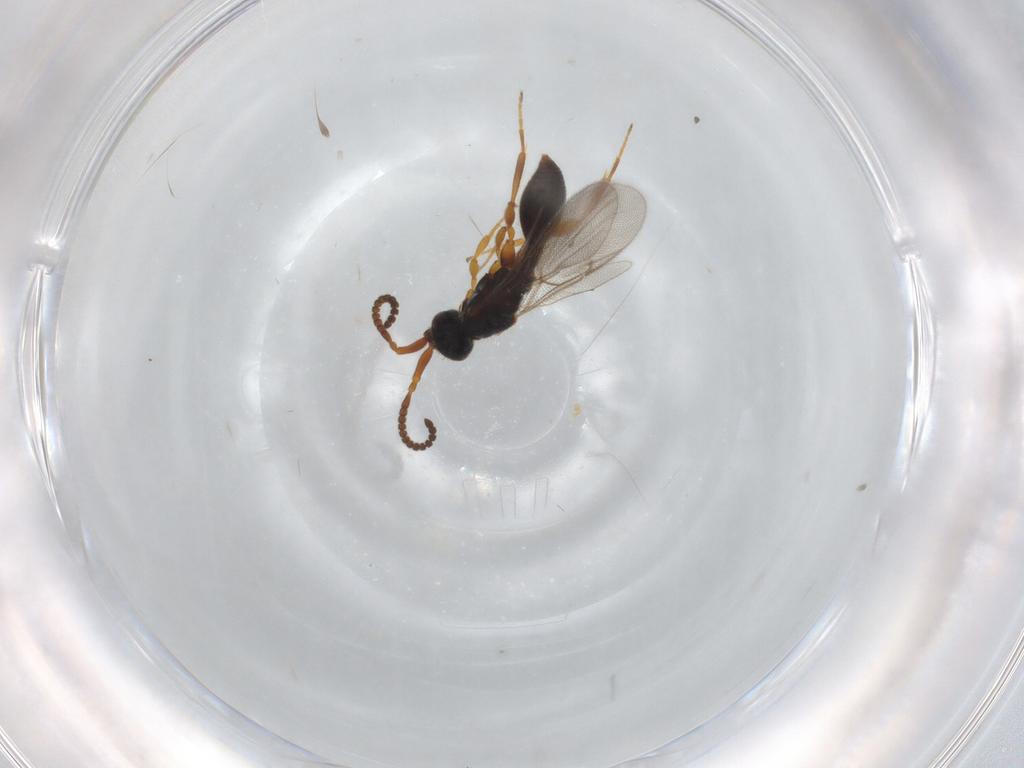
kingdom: Animalia
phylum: Arthropoda
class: Insecta
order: Hymenoptera
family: Diapriidae
